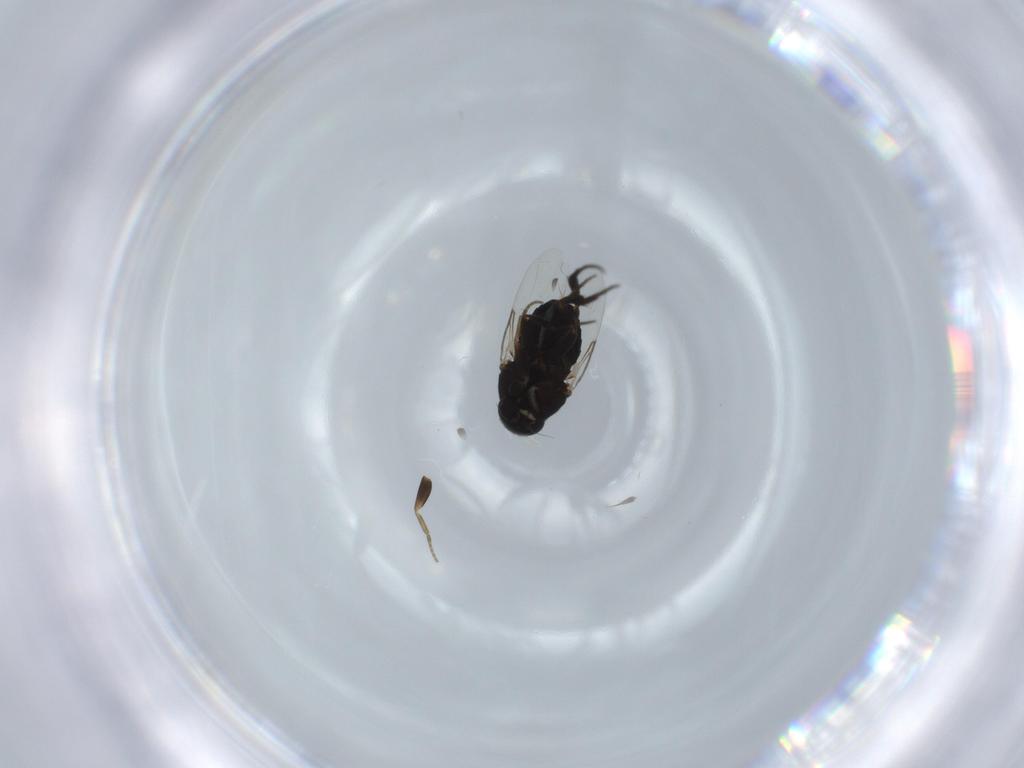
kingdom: Animalia
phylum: Arthropoda
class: Insecta
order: Diptera
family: Phoridae
